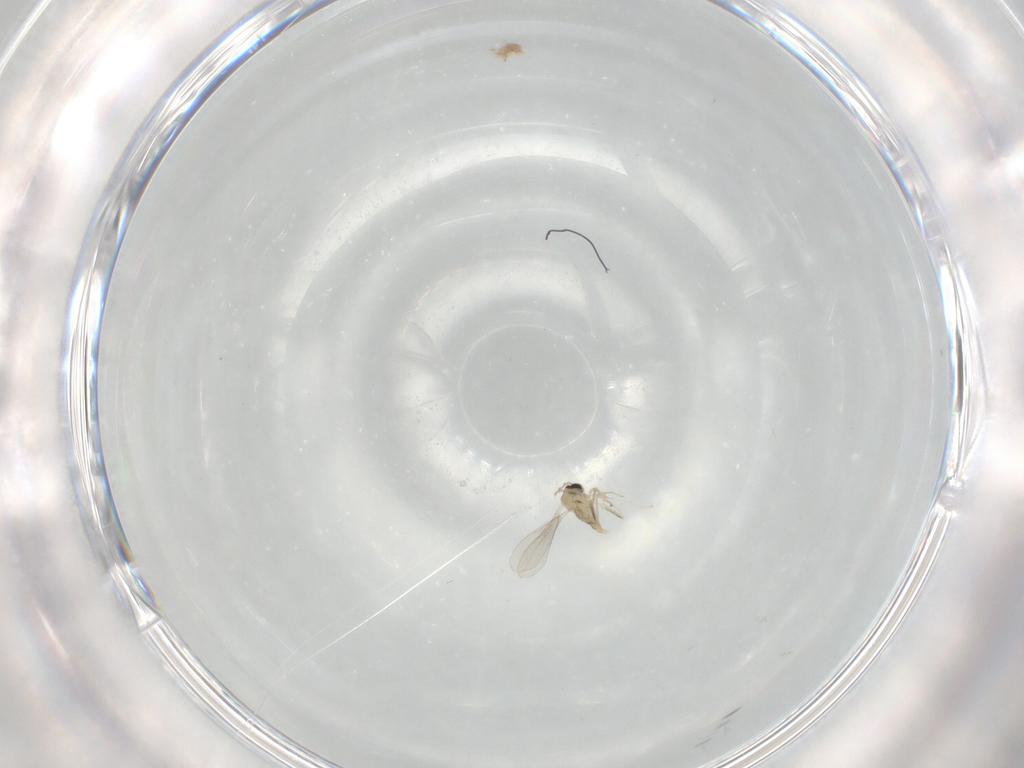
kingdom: Animalia
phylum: Arthropoda
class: Insecta
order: Diptera
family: Cecidomyiidae
